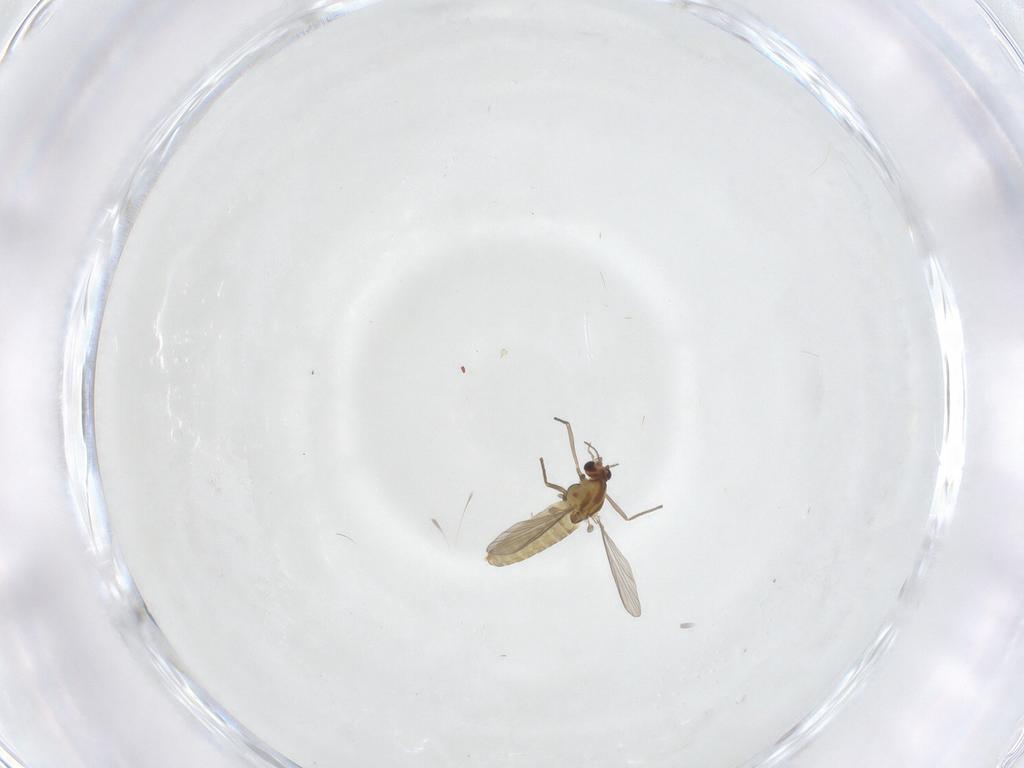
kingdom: Animalia
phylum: Arthropoda
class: Insecta
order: Diptera
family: Chironomidae
